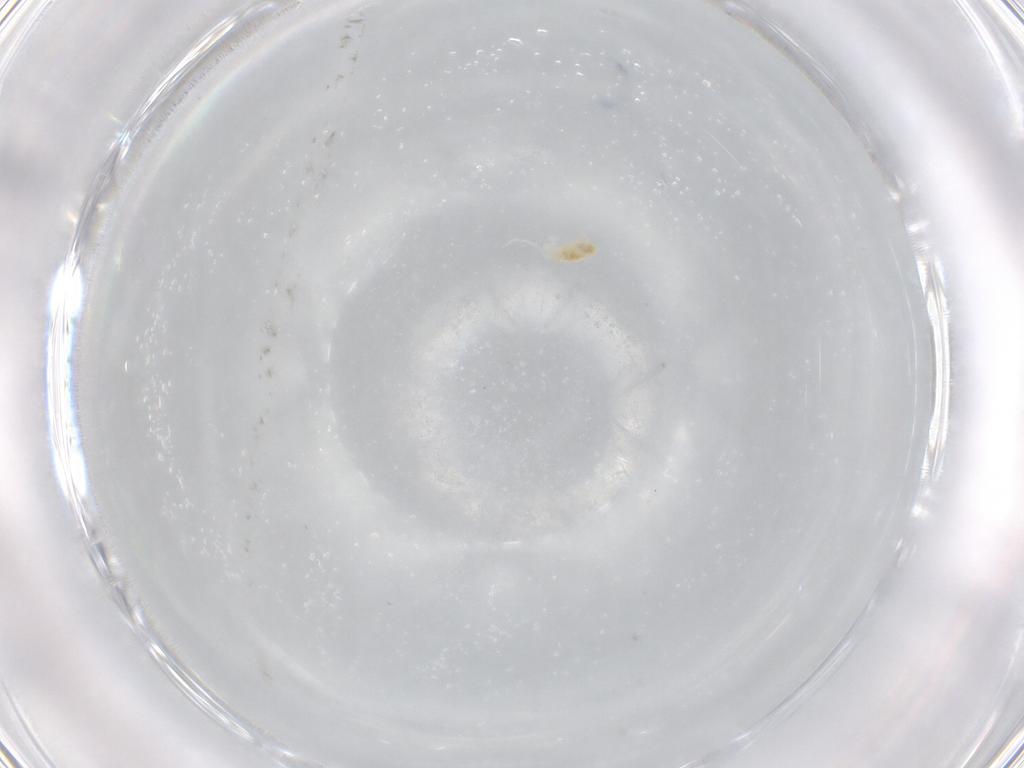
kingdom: Animalia
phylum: Arthropoda
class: Arachnida
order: Trombidiformes
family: Eupodidae
